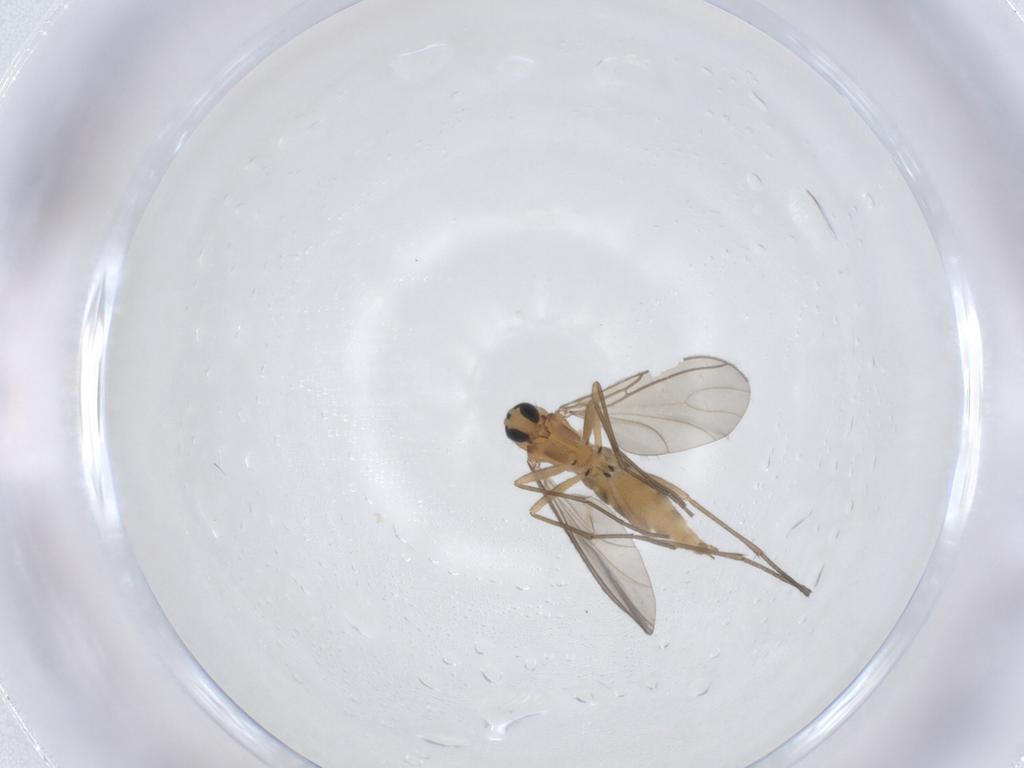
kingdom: Animalia
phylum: Arthropoda
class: Insecta
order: Diptera
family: Sciaridae
